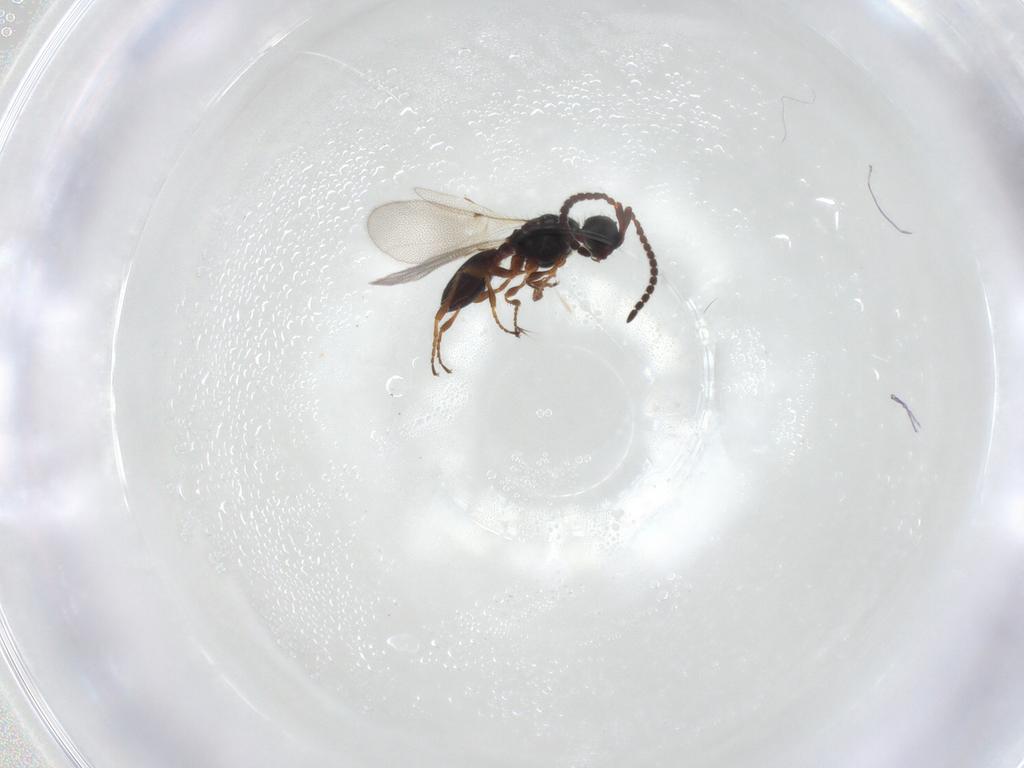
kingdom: Animalia
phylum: Arthropoda
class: Insecta
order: Hymenoptera
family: Diapriidae
